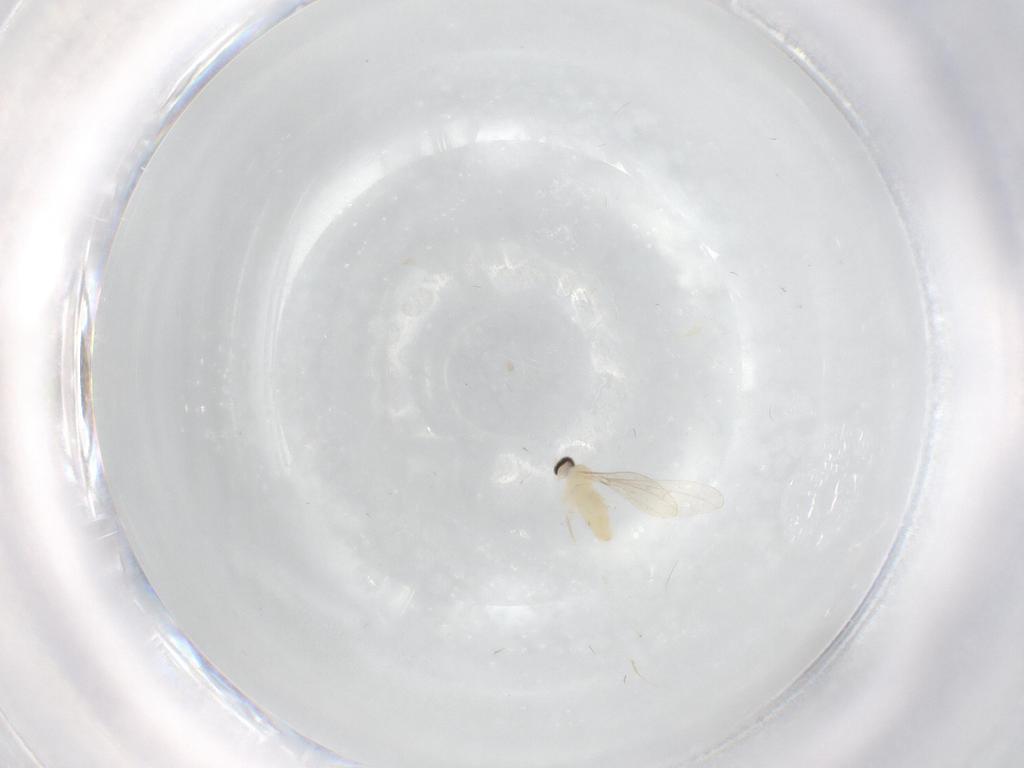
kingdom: Animalia
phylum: Arthropoda
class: Insecta
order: Diptera
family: Cecidomyiidae
